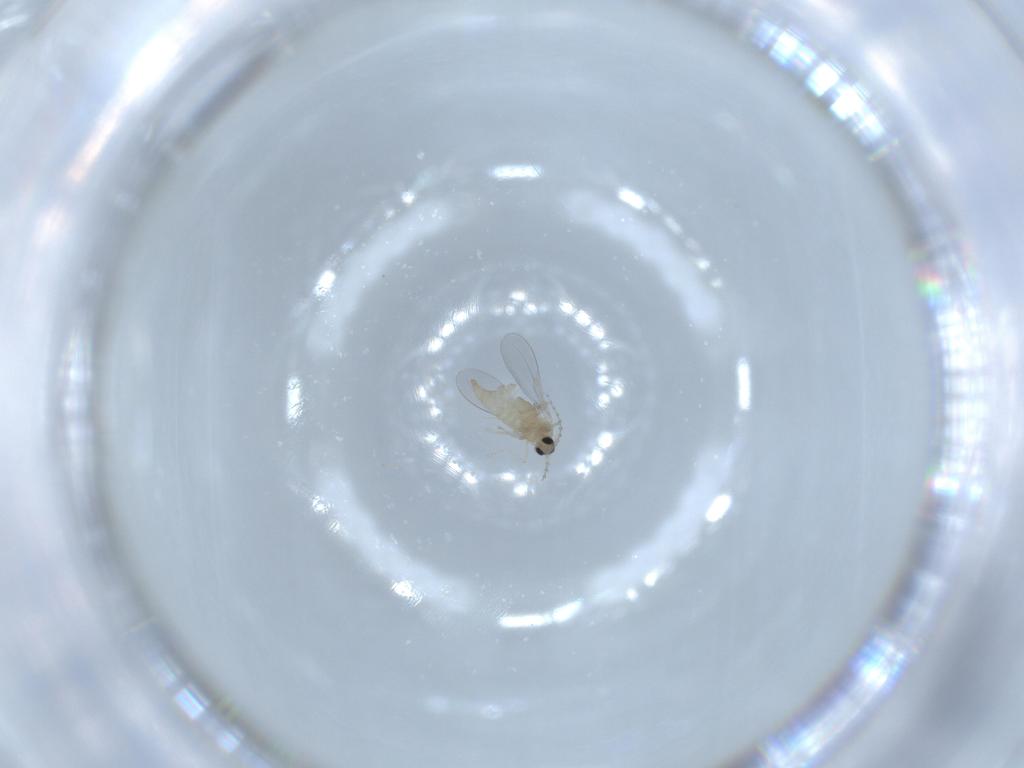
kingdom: Animalia
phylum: Arthropoda
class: Insecta
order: Diptera
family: Cecidomyiidae
